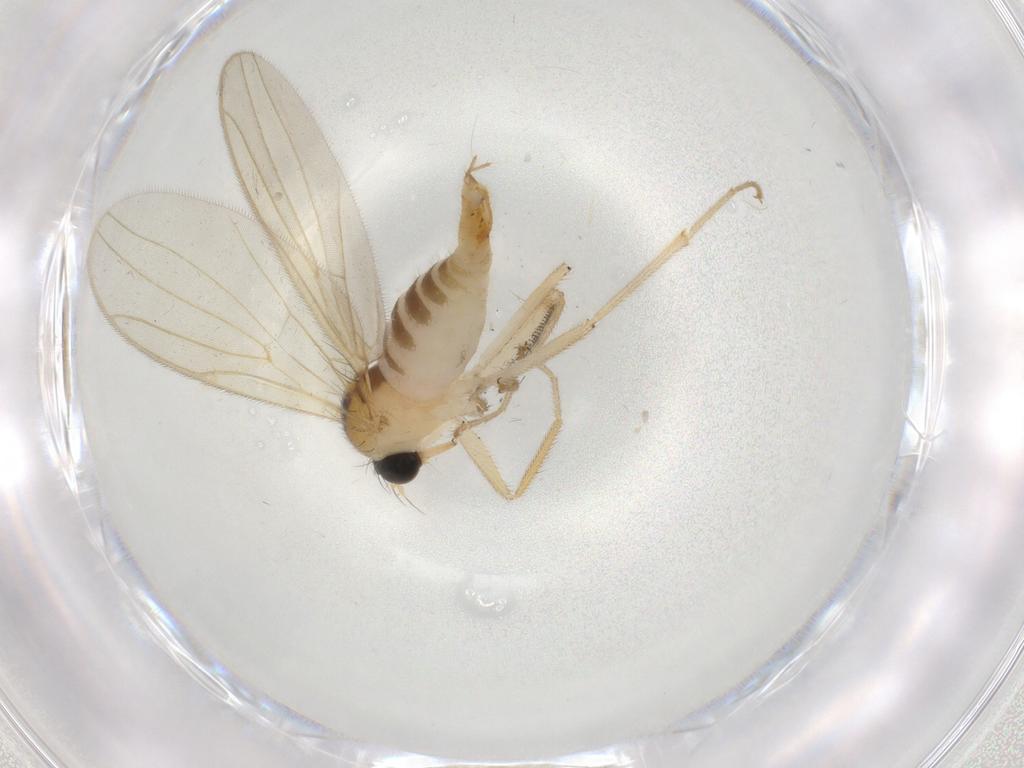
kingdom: Animalia
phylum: Arthropoda
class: Insecta
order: Diptera
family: Hybotidae
